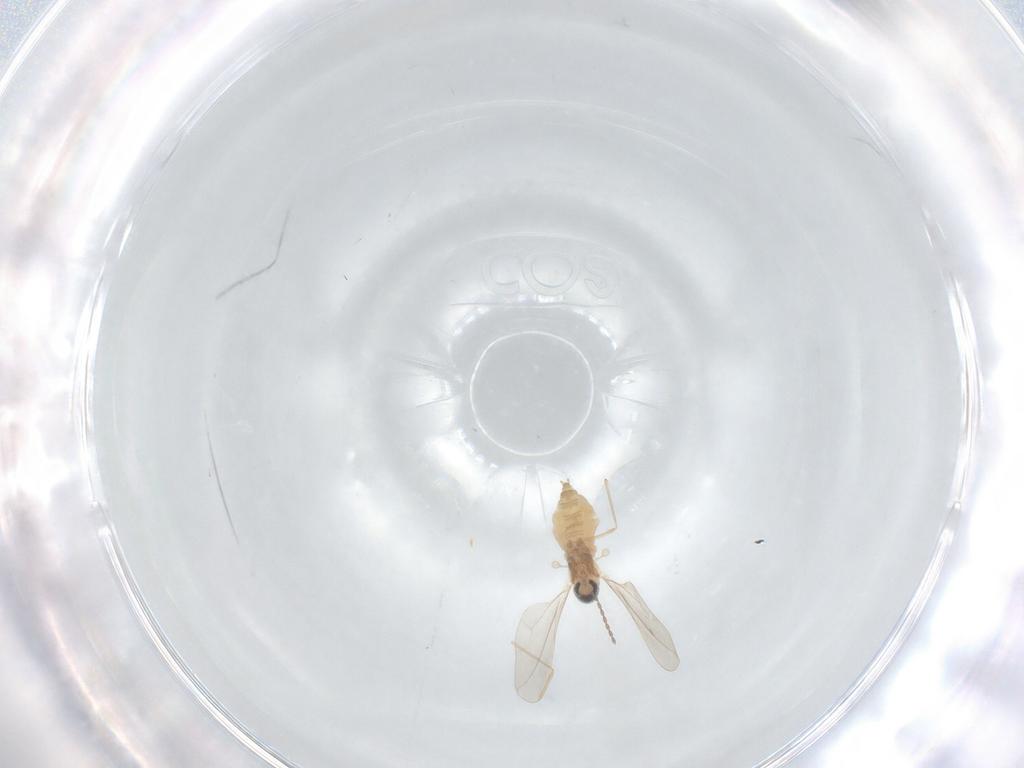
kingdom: Animalia
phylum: Arthropoda
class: Insecta
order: Diptera
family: Cecidomyiidae
